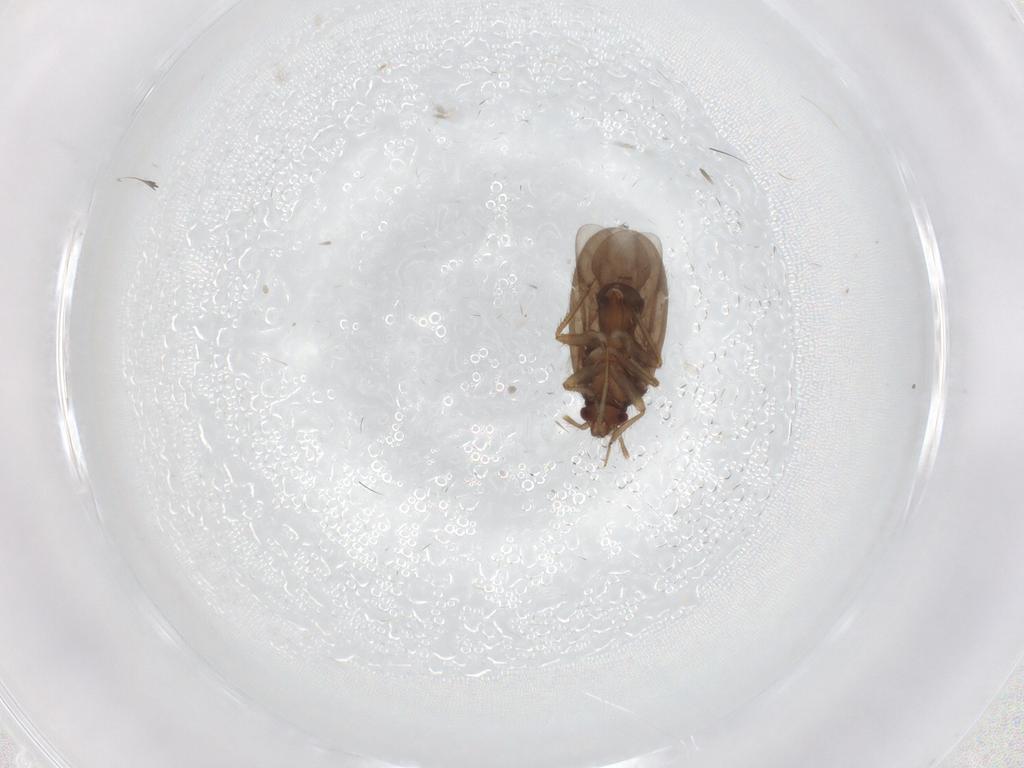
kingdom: Animalia
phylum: Arthropoda
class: Insecta
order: Hemiptera
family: Ceratocombidae
